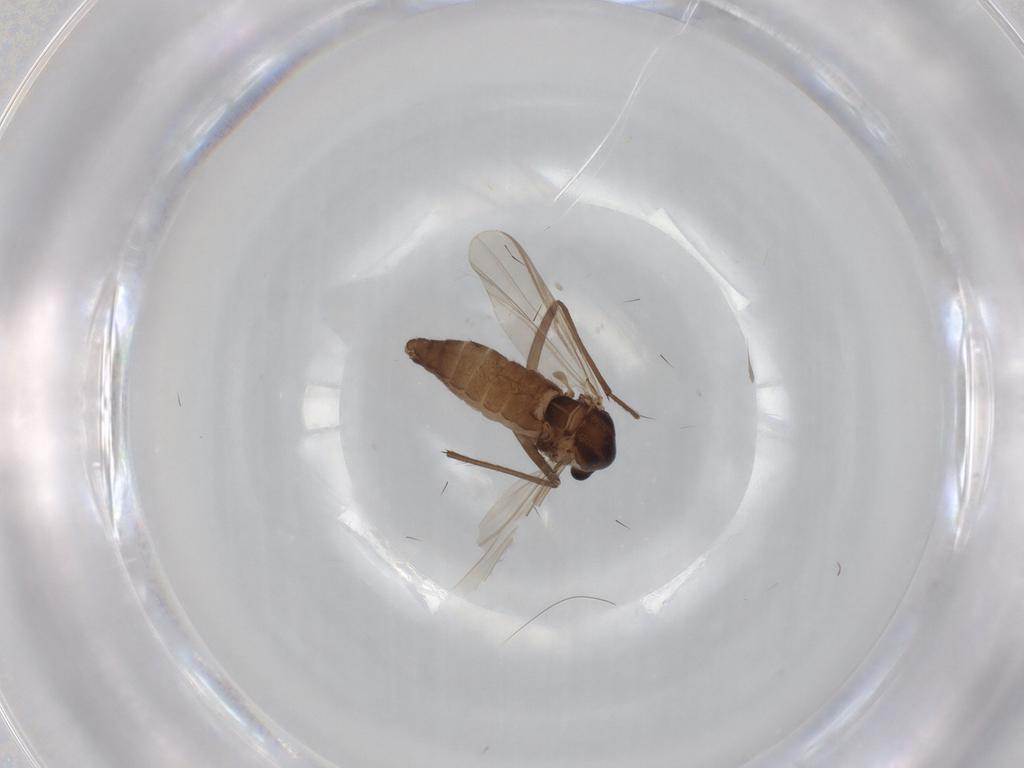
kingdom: Animalia
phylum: Arthropoda
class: Insecta
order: Diptera
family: Chironomidae
